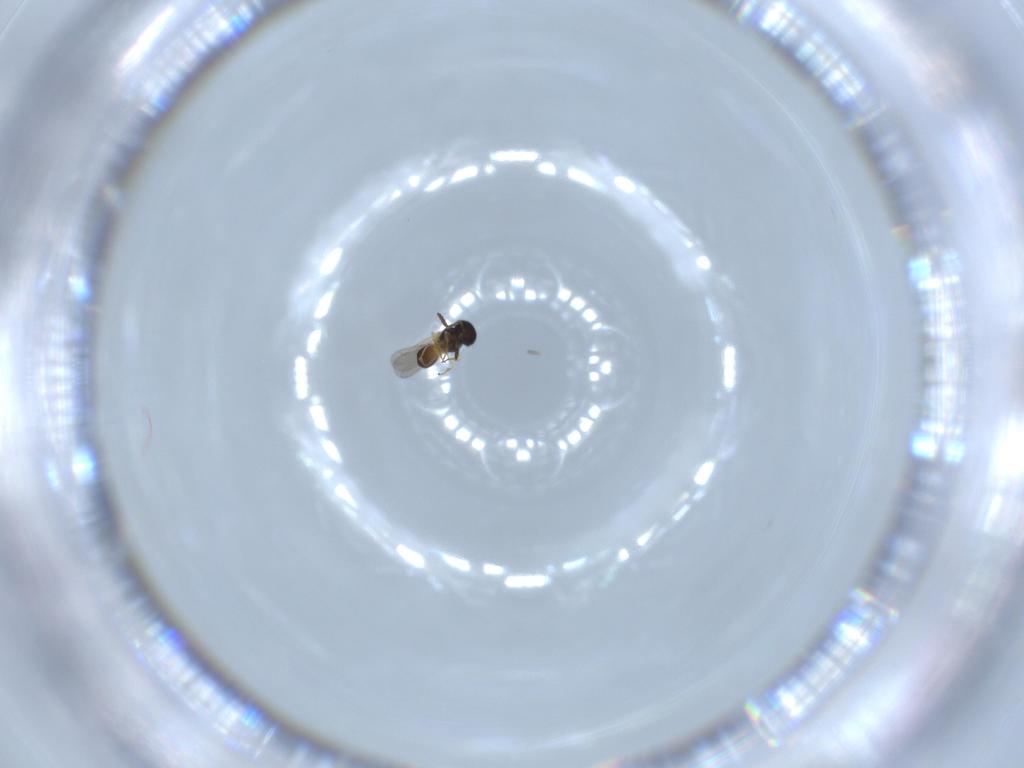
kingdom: Animalia
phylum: Arthropoda
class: Insecta
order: Hymenoptera
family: Scelionidae
